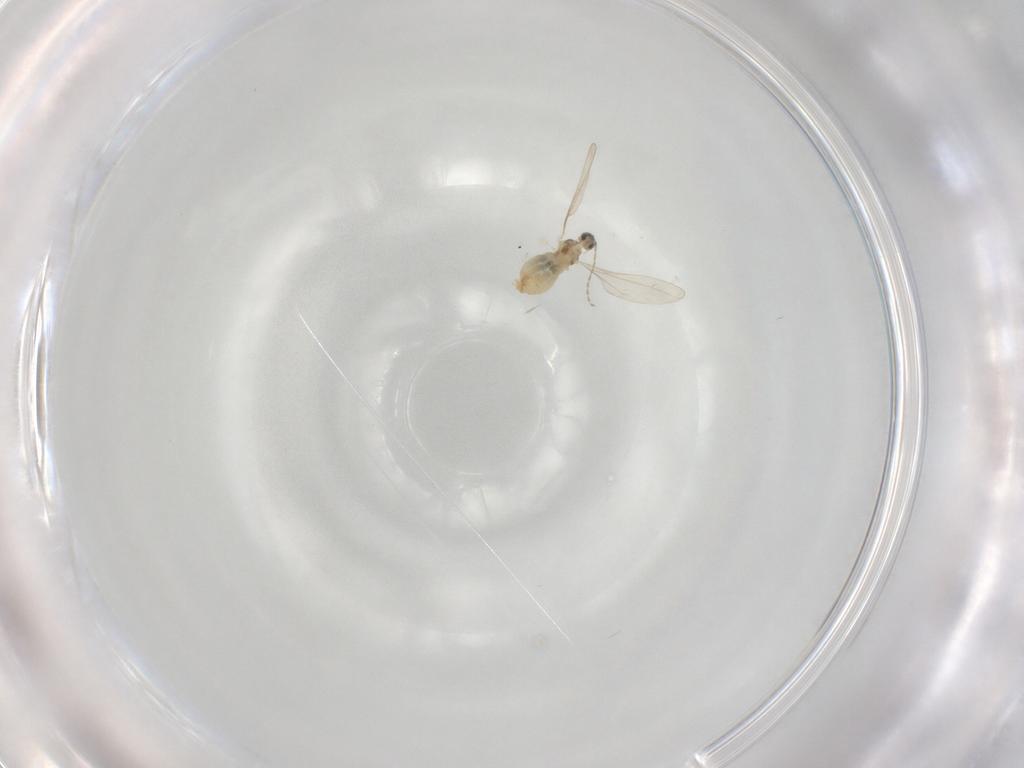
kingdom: Animalia
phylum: Arthropoda
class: Insecta
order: Diptera
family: Cecidomyiidae
